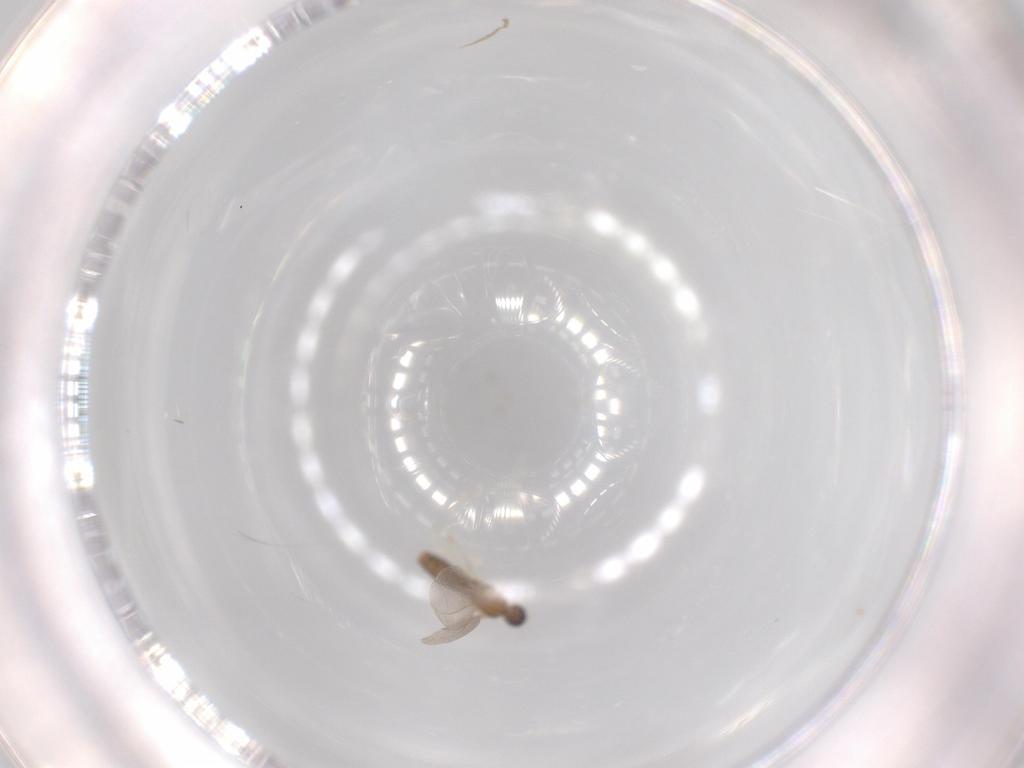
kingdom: Animalia
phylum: Arthropoda
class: Insecta
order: Diptera
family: Cecidomyiidae
